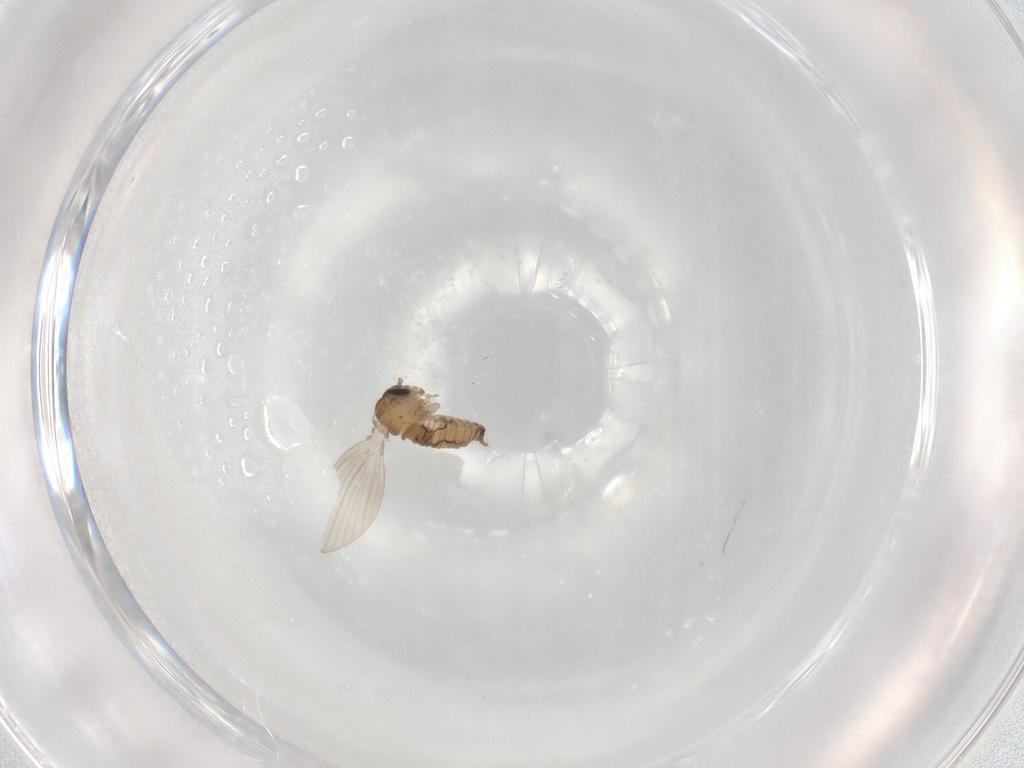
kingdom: Animalia
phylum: Arthropoda
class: Insecta
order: Diptera
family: Psychodidae
